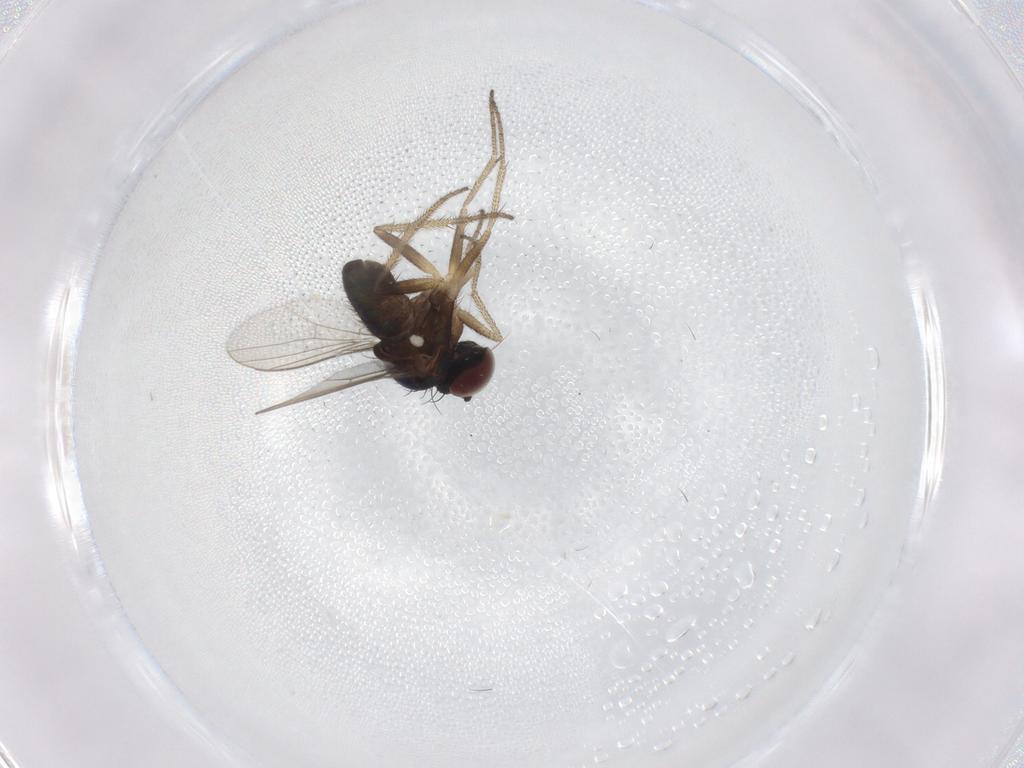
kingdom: Animalia
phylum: Arthropoda
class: Insecta
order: Diptera
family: Dolichopodidae
